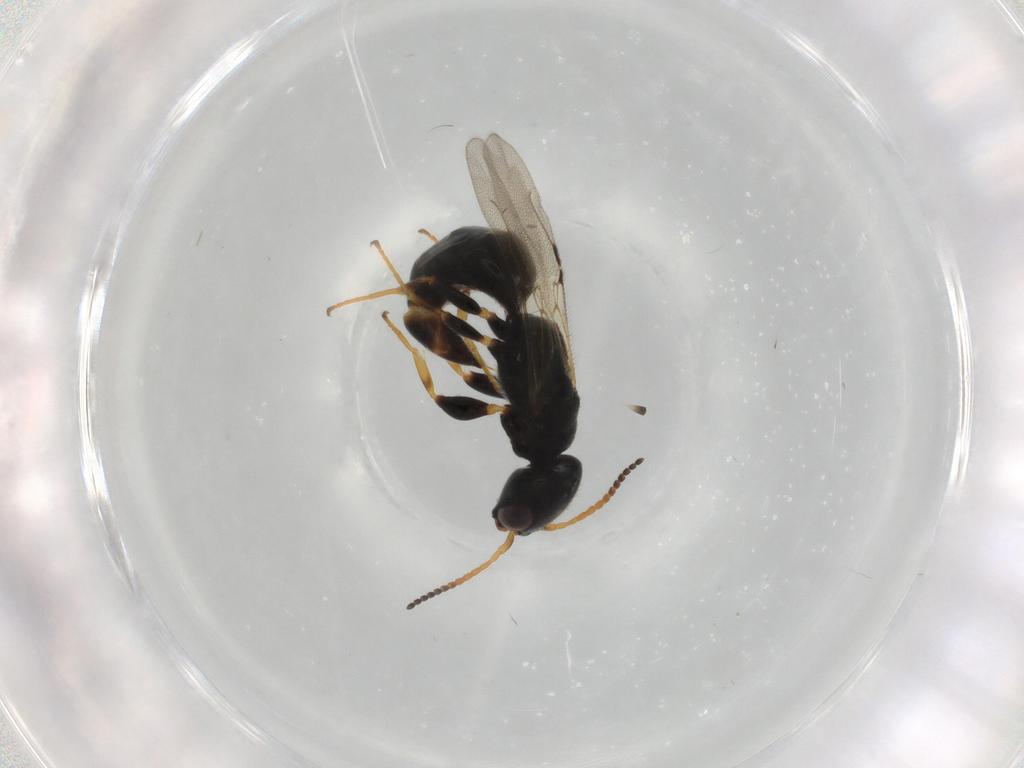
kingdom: Animalia
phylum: Arthropoda
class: Insecta
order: Hymenoptera
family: Bethylidae
